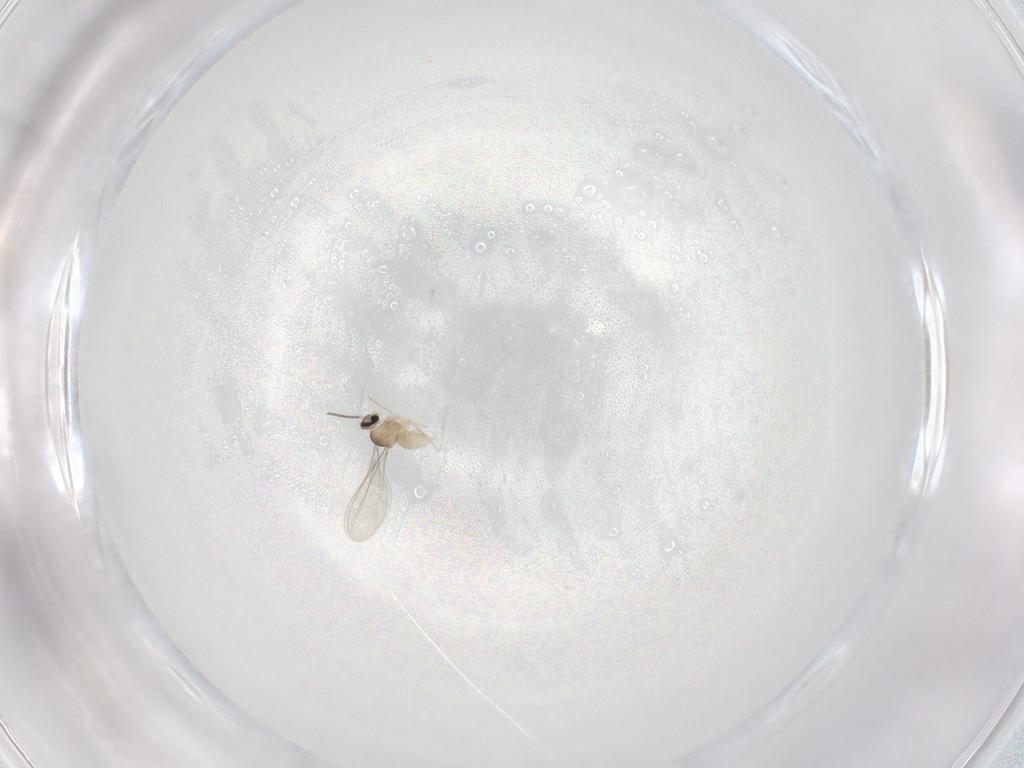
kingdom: Animalia
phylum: Arthropoda
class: Insecta
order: Diptera
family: Cecidomyiidae
